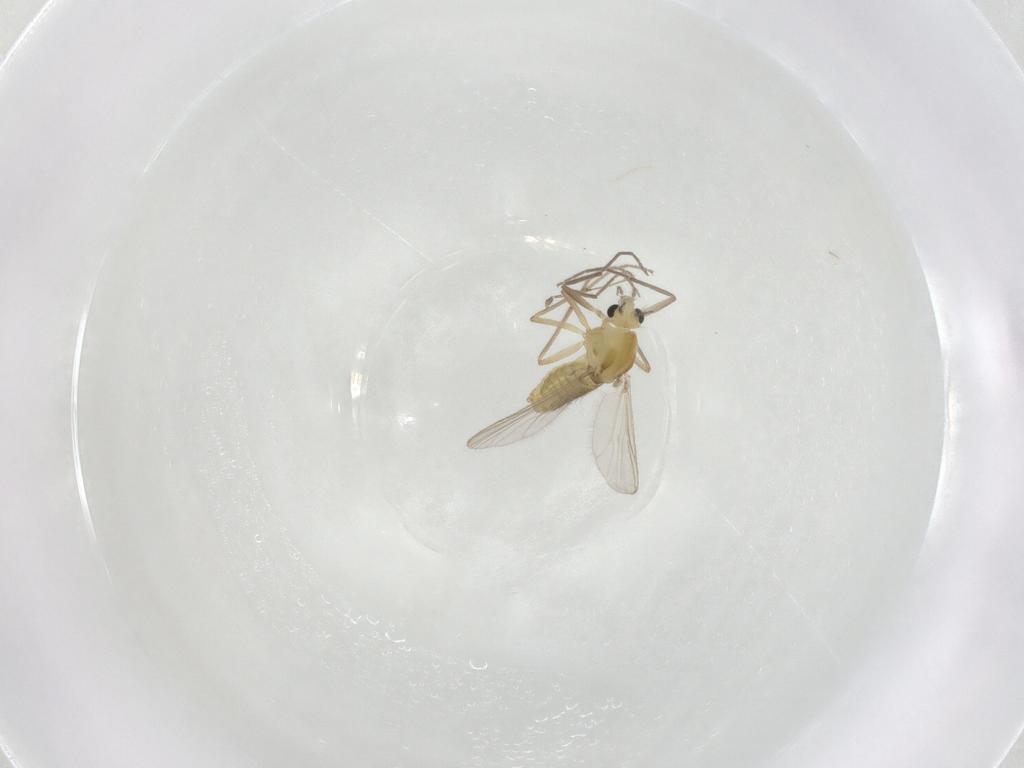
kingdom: Animalia
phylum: Arthropoda
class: Insecta
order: Diptera
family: Chironomidae
